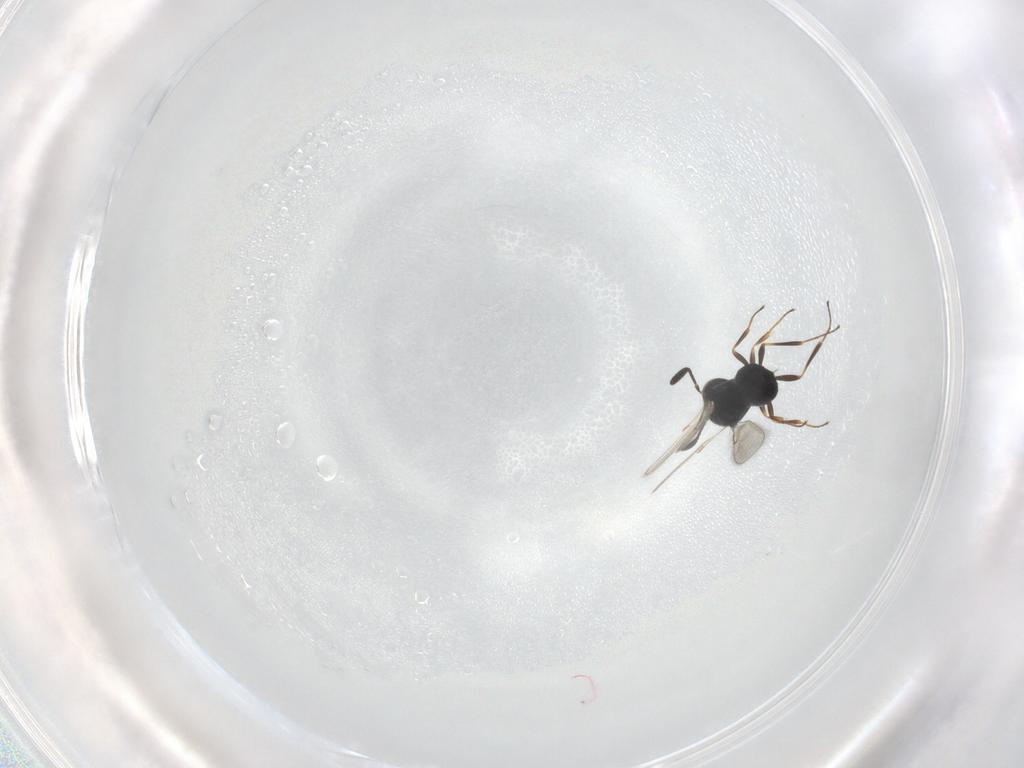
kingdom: Animalia
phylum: Arthropoda
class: Insecta
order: Hymenoptera
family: Scelionidae
